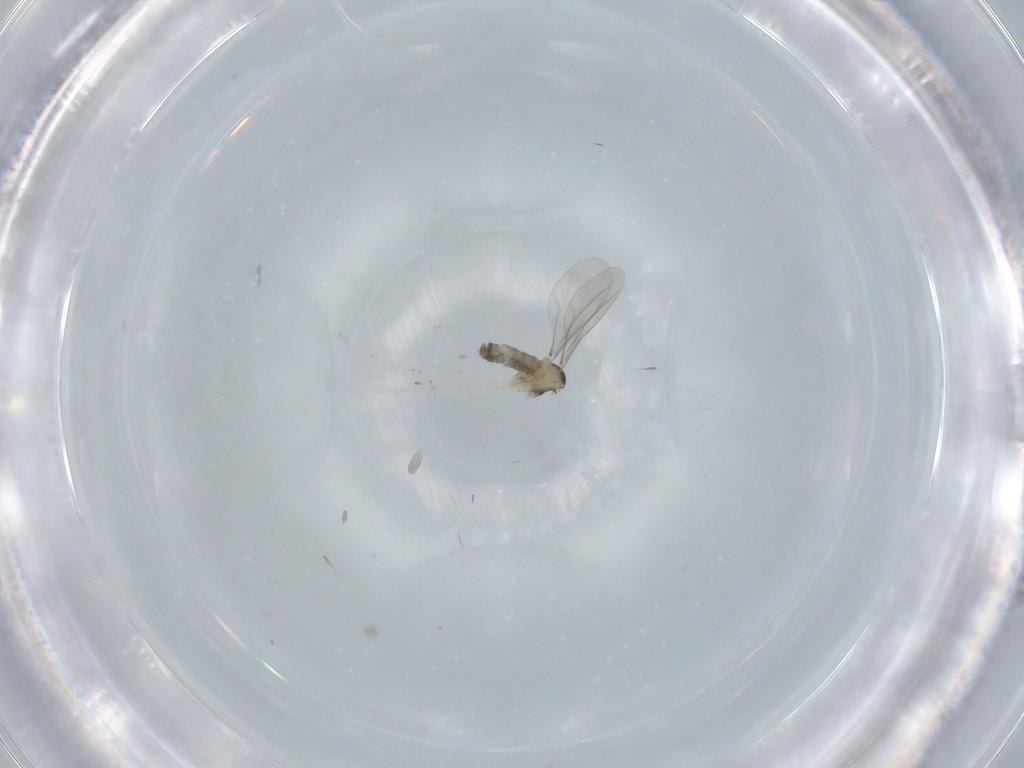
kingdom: Animalia
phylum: Arthropoda
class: Insecta
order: Diptera
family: Cecidomyiidae
